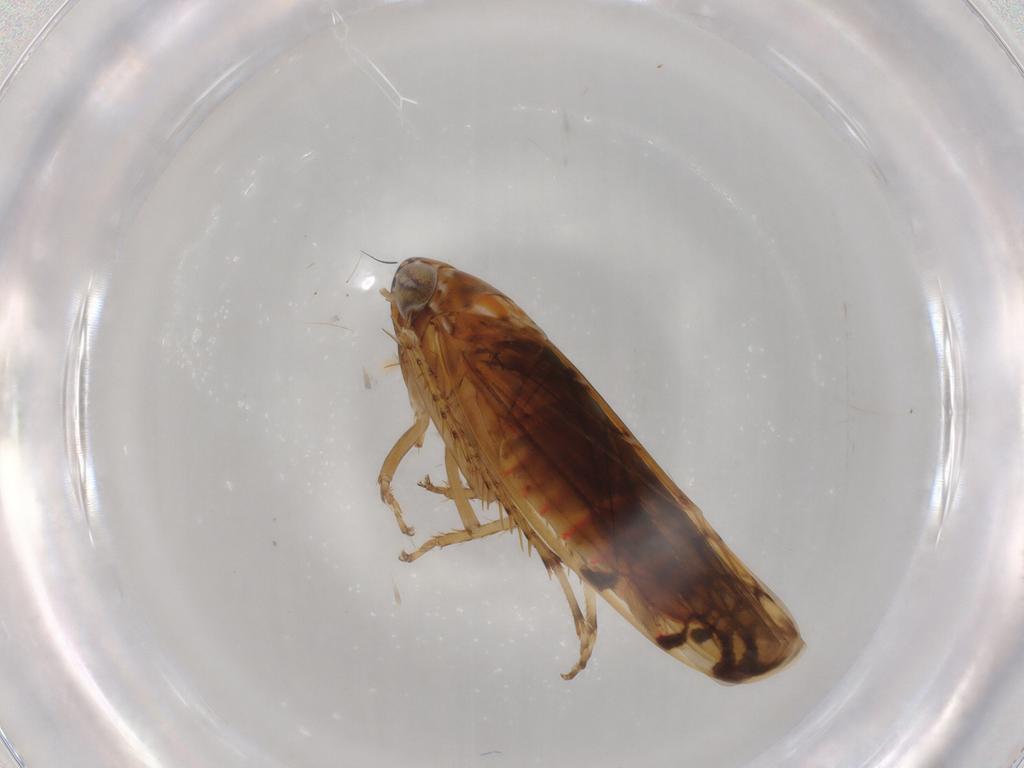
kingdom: Animalia
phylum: Arthropoda
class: Insecta
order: Hemiptera
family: Cicadellidae
